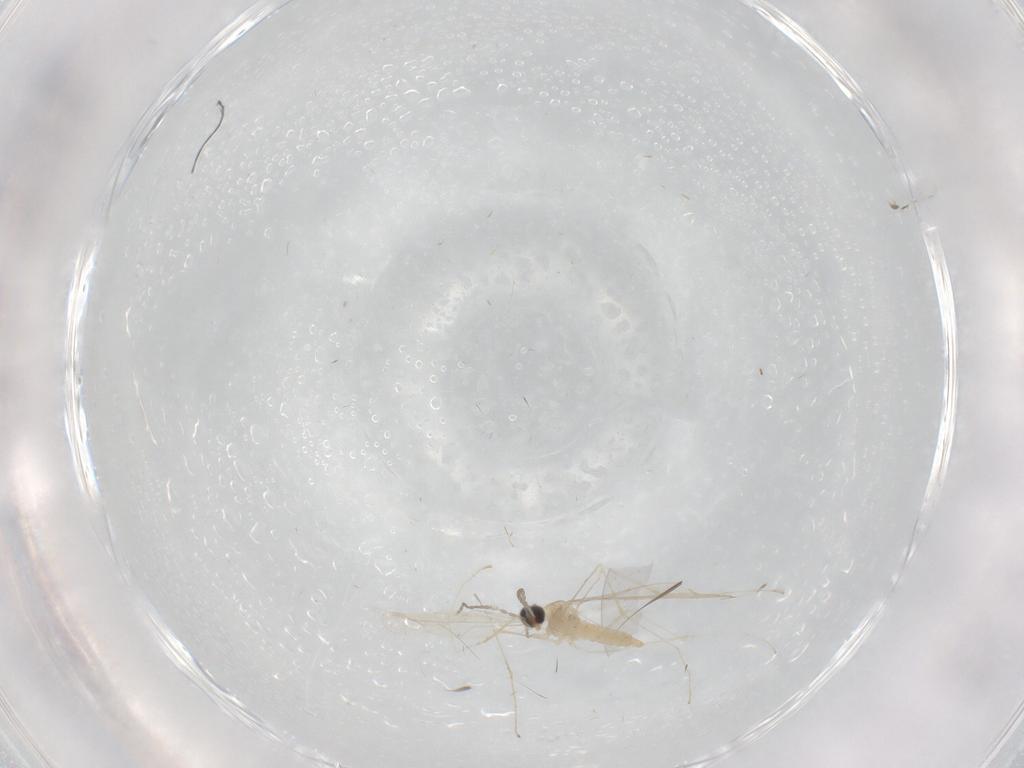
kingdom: Animalia
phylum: Arthropoda
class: Insecta
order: Diptera
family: Cecidomyiidae
